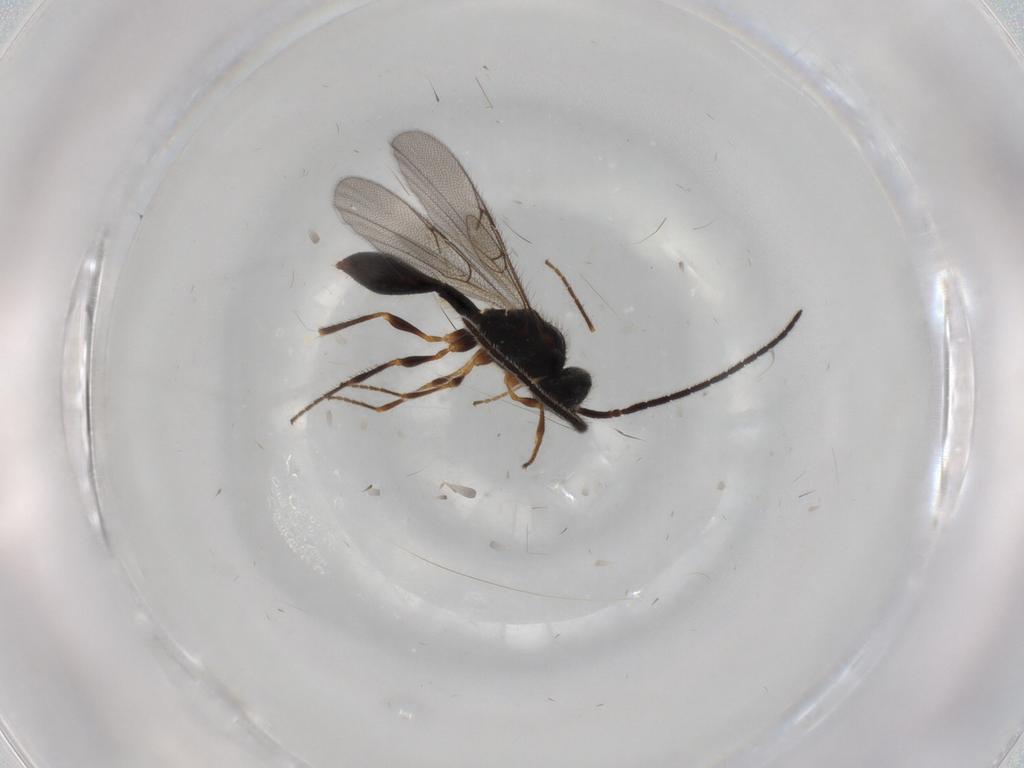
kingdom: Animalia
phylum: Arthropoda
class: Insecta
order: Hymenoptera
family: Diapriidae
